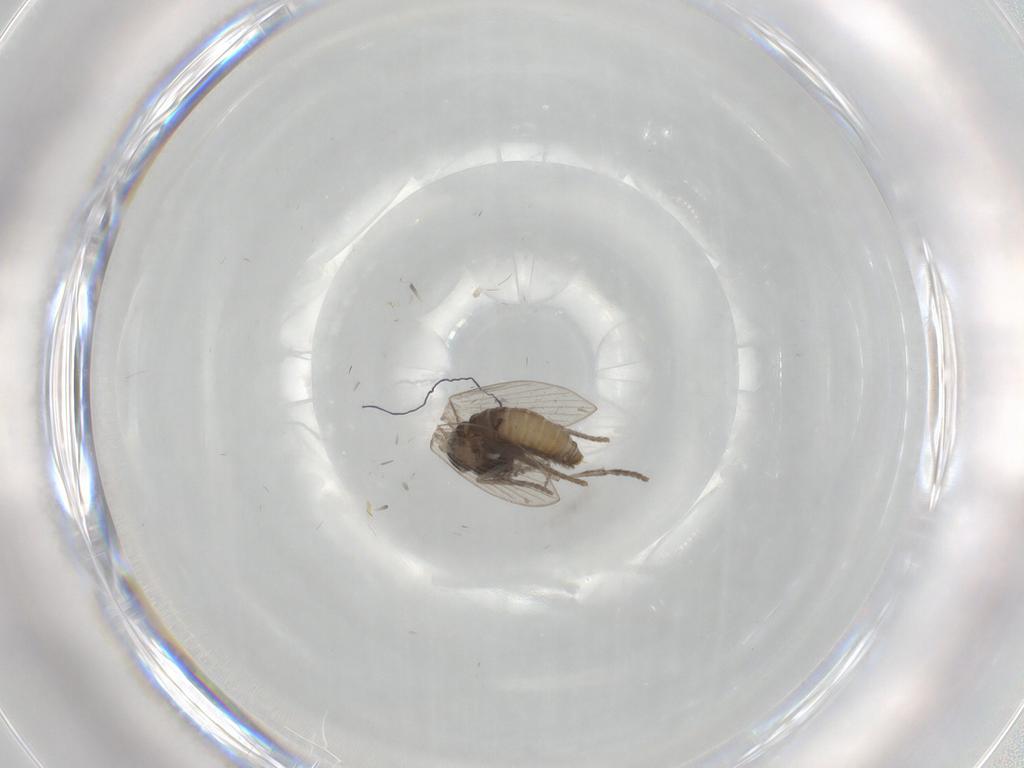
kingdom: Animalia
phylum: Arthropoda
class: Insecta
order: Diptera
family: Psychodidae
